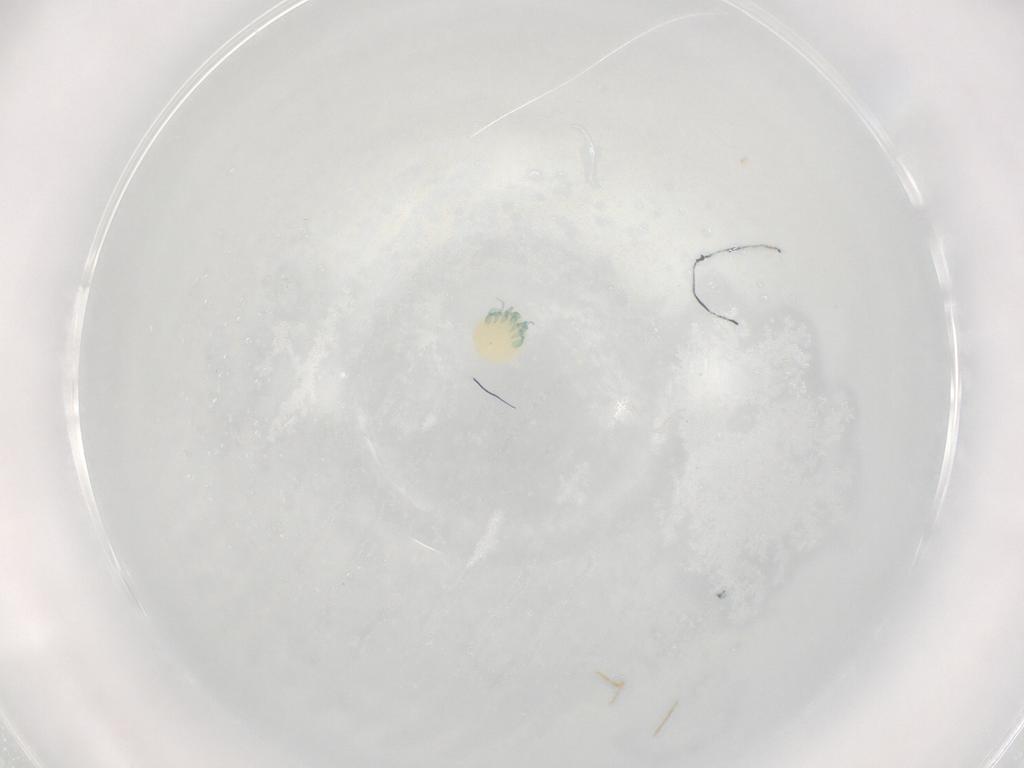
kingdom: Animalia
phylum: Arthropoda
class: Arachnida
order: Trombidiformes
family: Arrenuridae
